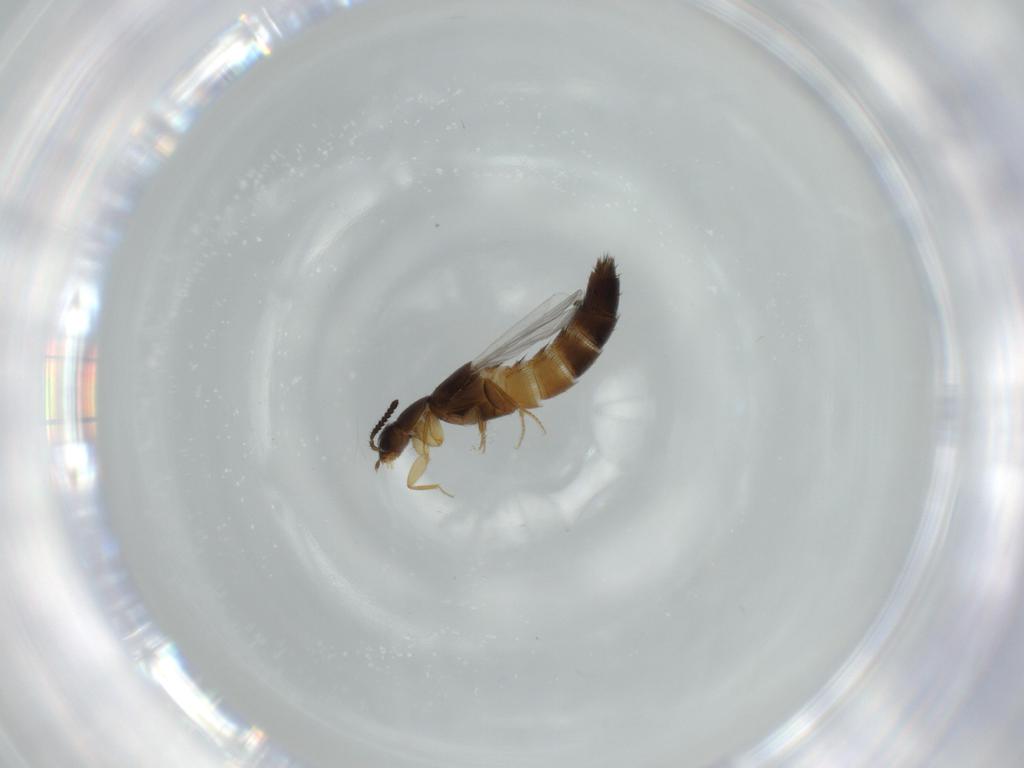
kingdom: Animalia
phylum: Arthropoda
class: Insecta
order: Coleoptera
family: Staphylinidae
